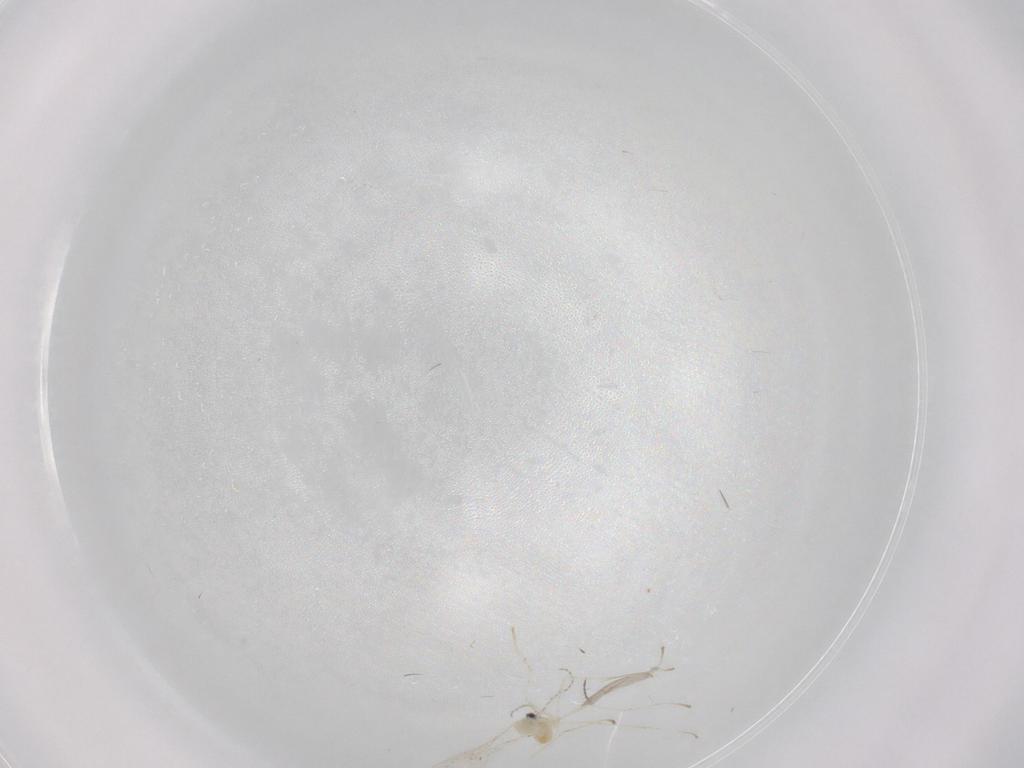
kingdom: Animalia
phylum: Arthropoda
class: Insecta
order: Diptera
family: Cecidomyiidae
